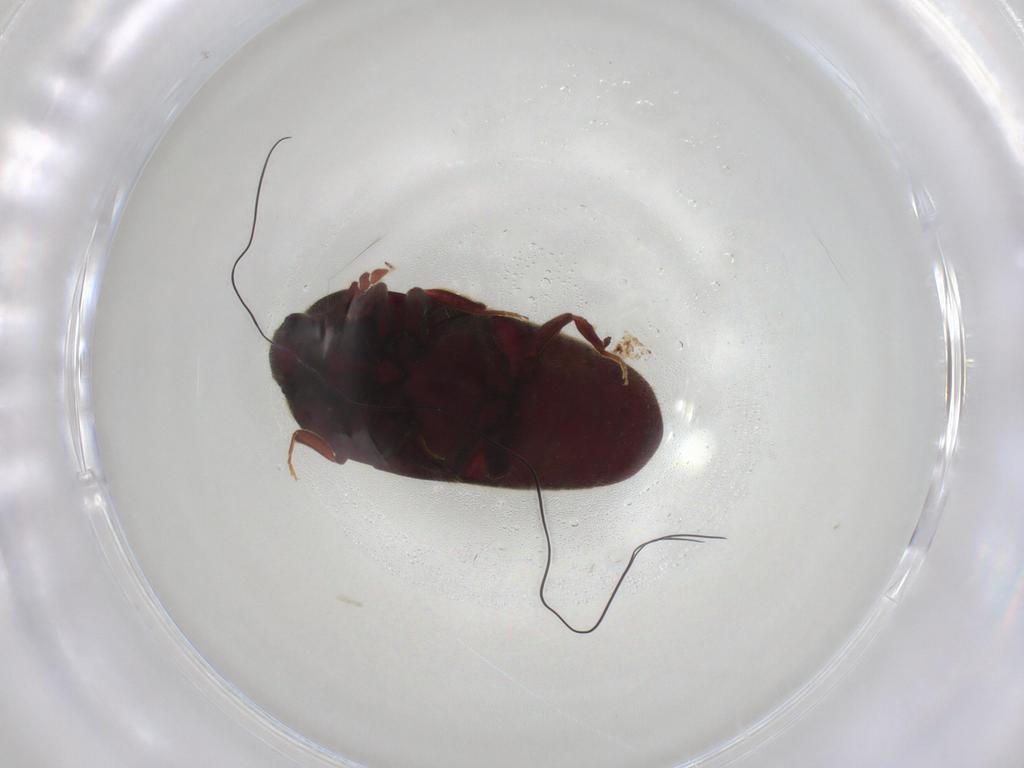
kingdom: Animalia
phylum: Arthropoda
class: Insecta
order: Coleoptera
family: Throscidae
